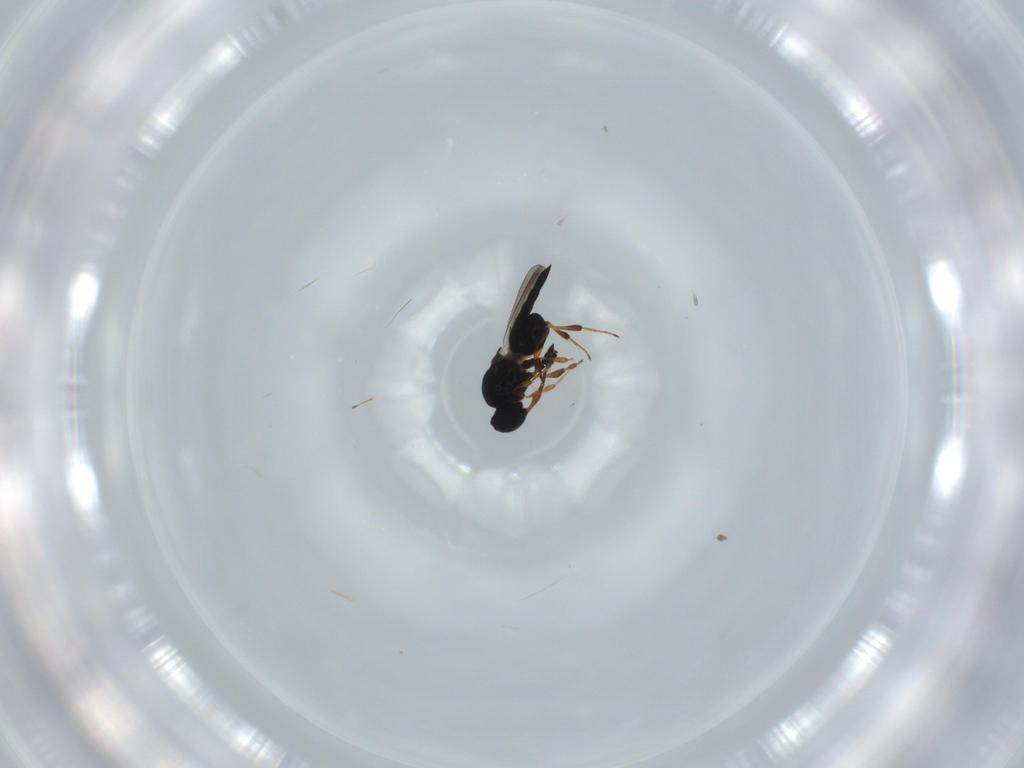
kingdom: Animalia
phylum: Arthropoda
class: Insecta
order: Hymenoptera
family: Platygastridae
